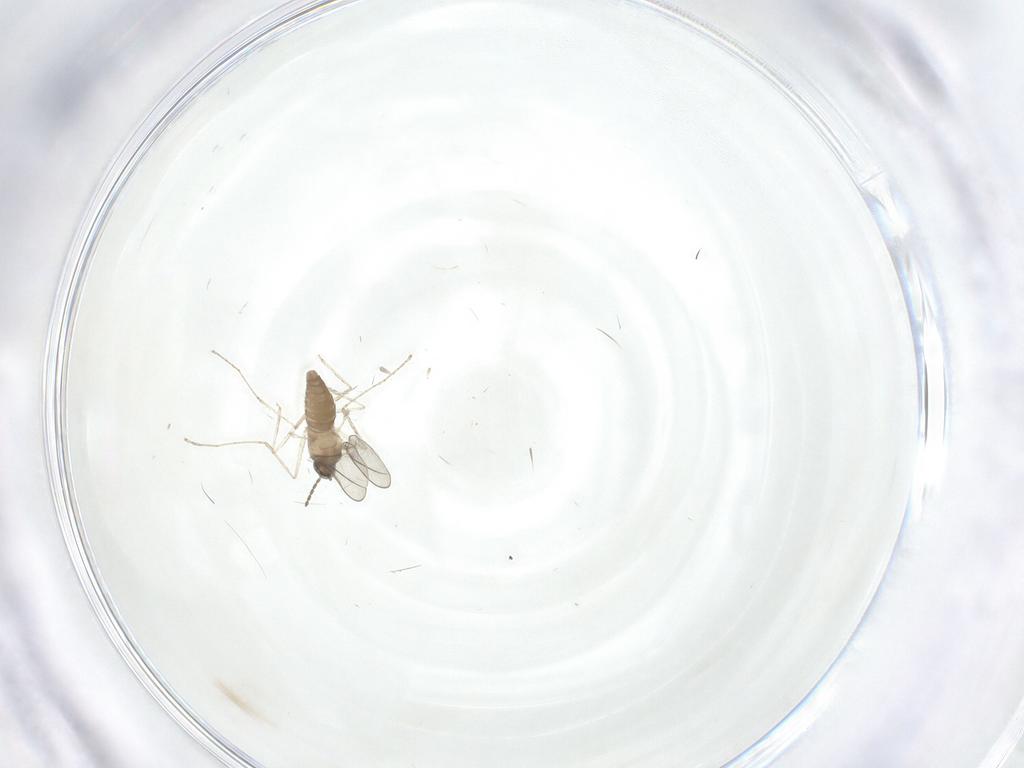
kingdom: Animalia
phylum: Arthropoda
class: Insecta
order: Diptera
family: Cecidomyiidae
